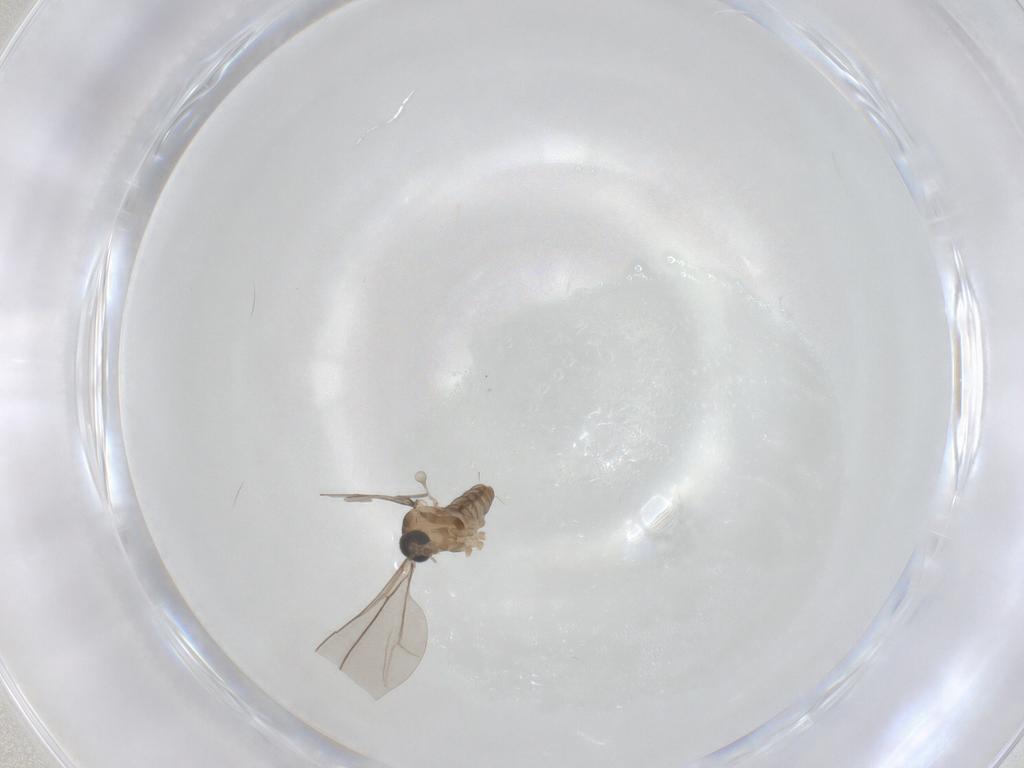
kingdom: Animalia
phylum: Arthropoda
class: Insecta
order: Diptera
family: Cecidomyiidae
